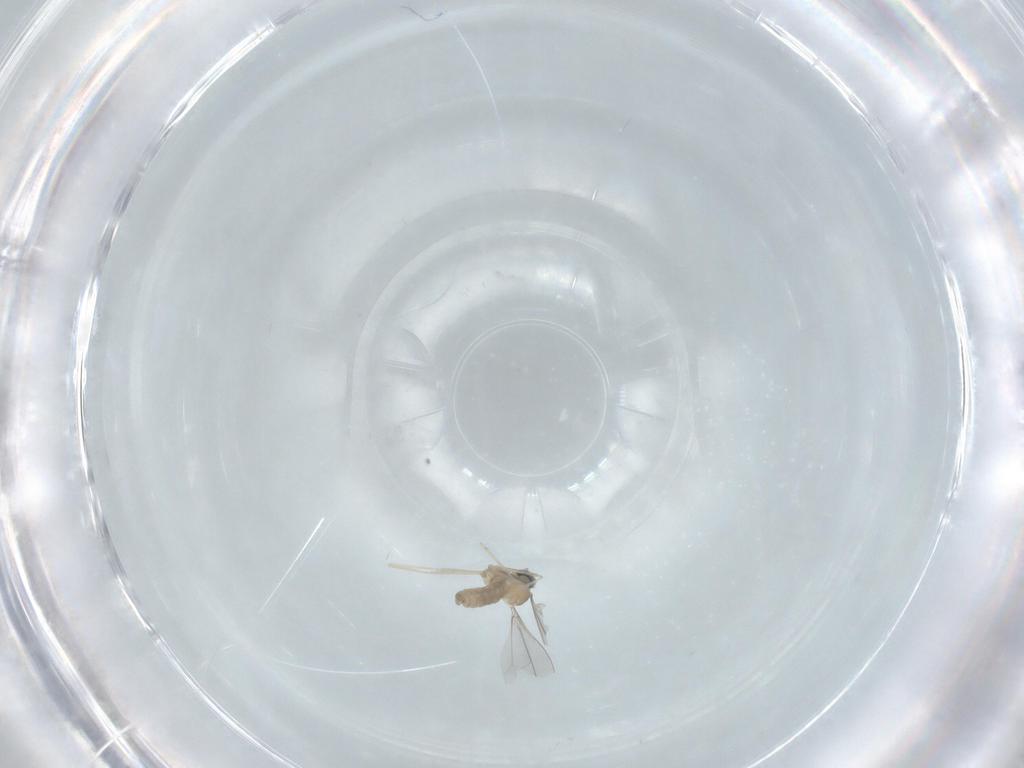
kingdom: Animalia
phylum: Arthropoda
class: Insecta
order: Diptera
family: Cecidomyiidae
